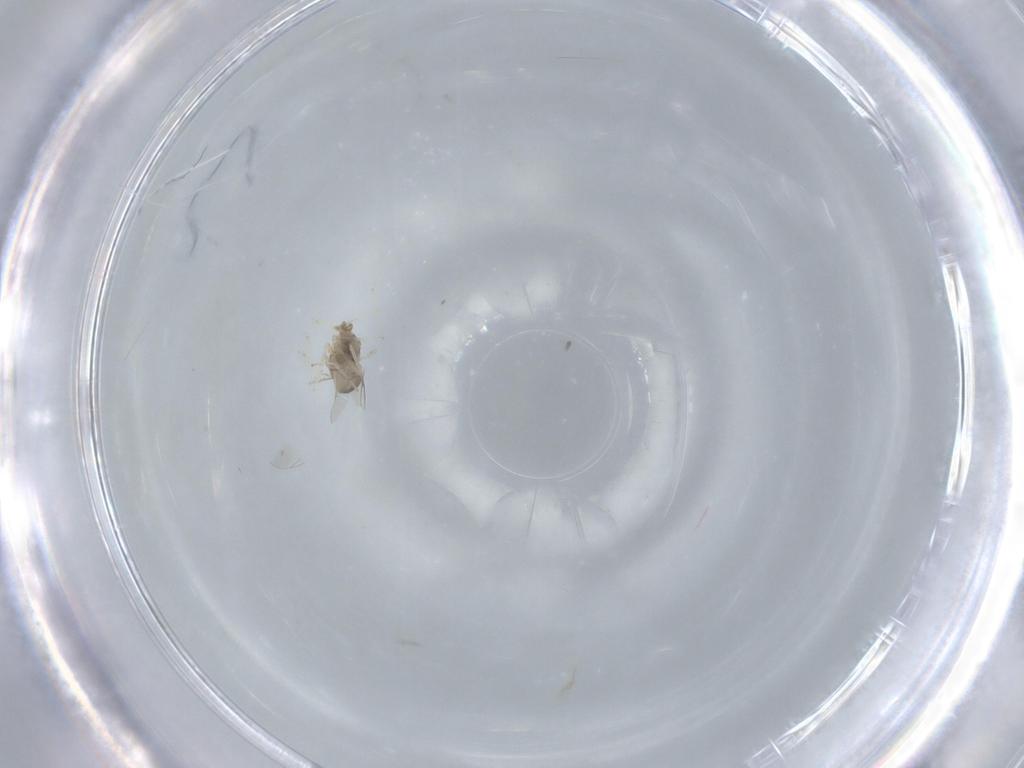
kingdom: Animalia
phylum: Arthropoda
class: Insecta
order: Diptera
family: Cecidomyiidae
